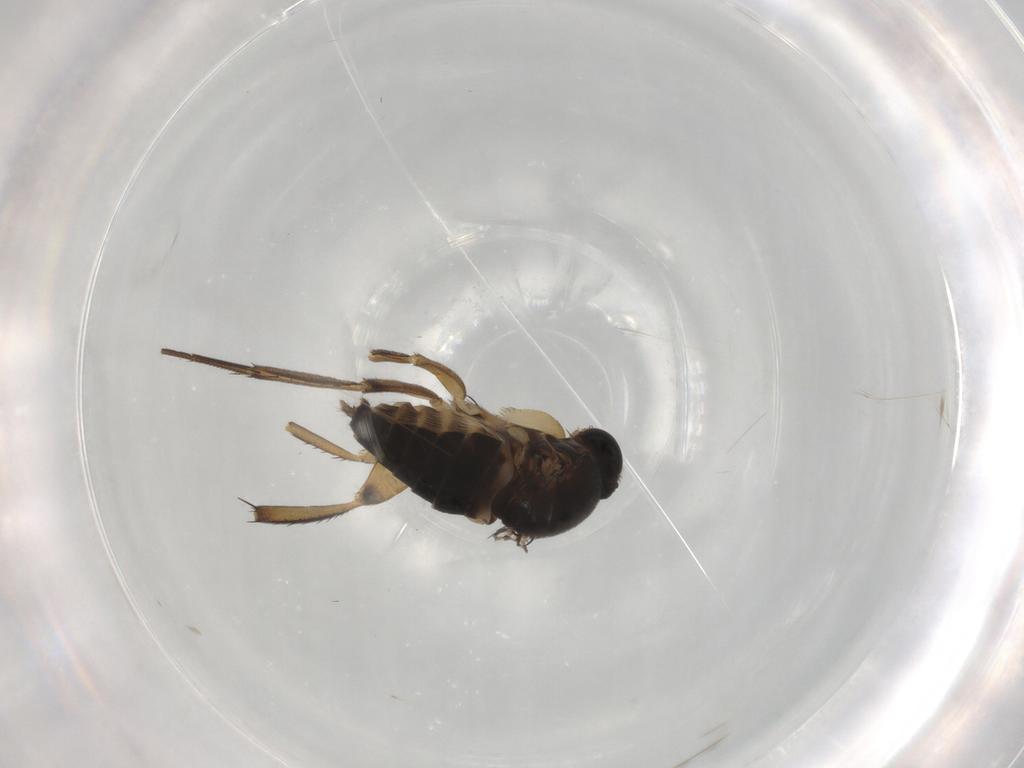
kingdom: Animalia
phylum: Arthropoda
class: Insecta
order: Diptera
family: Phoridae
